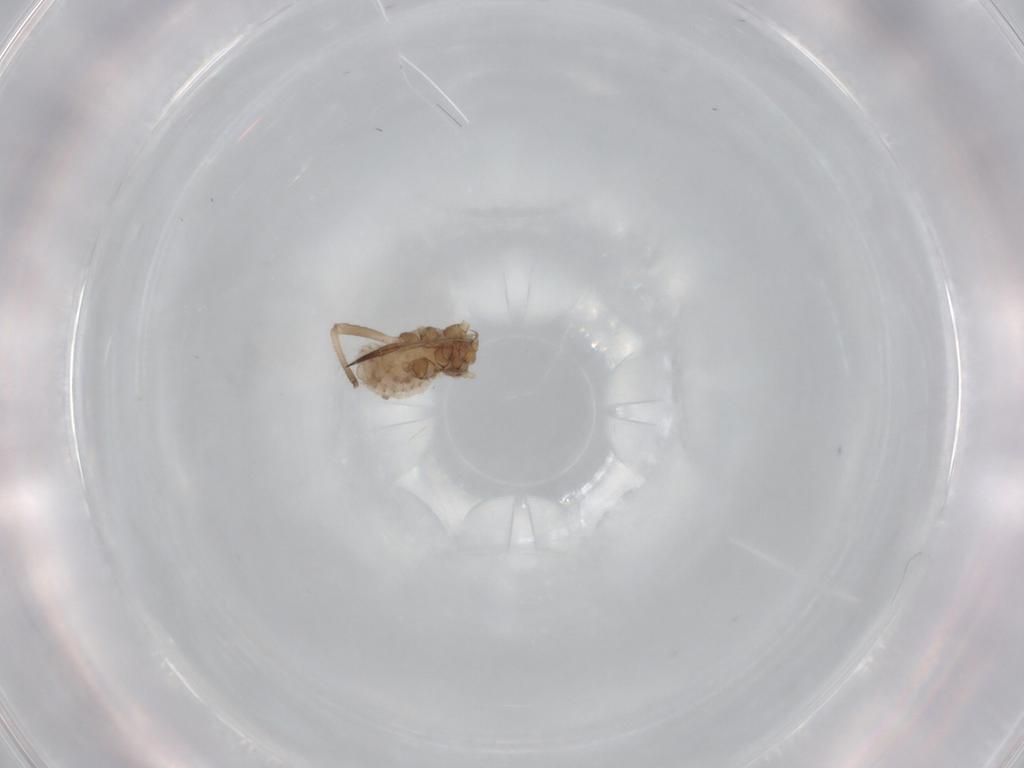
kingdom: Animalia
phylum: Arthropoda
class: Insecta
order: Hemiptera
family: Aphididae
